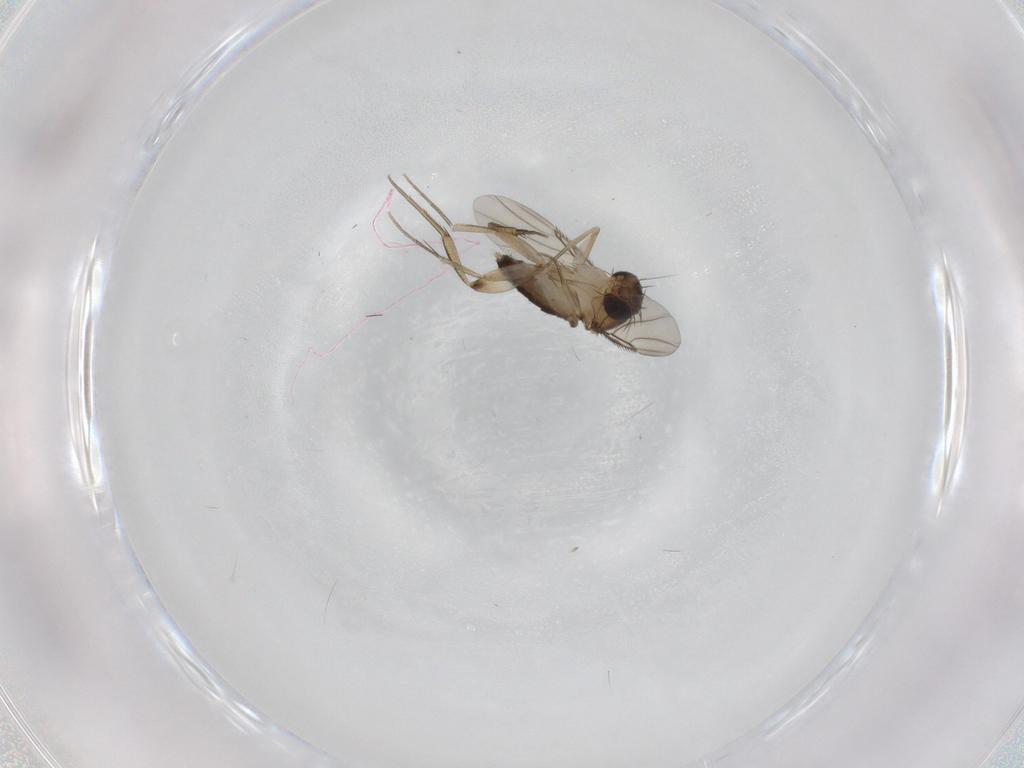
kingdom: Animalia
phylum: Arthropoda
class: Insecta
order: Diptera
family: Phoridae
